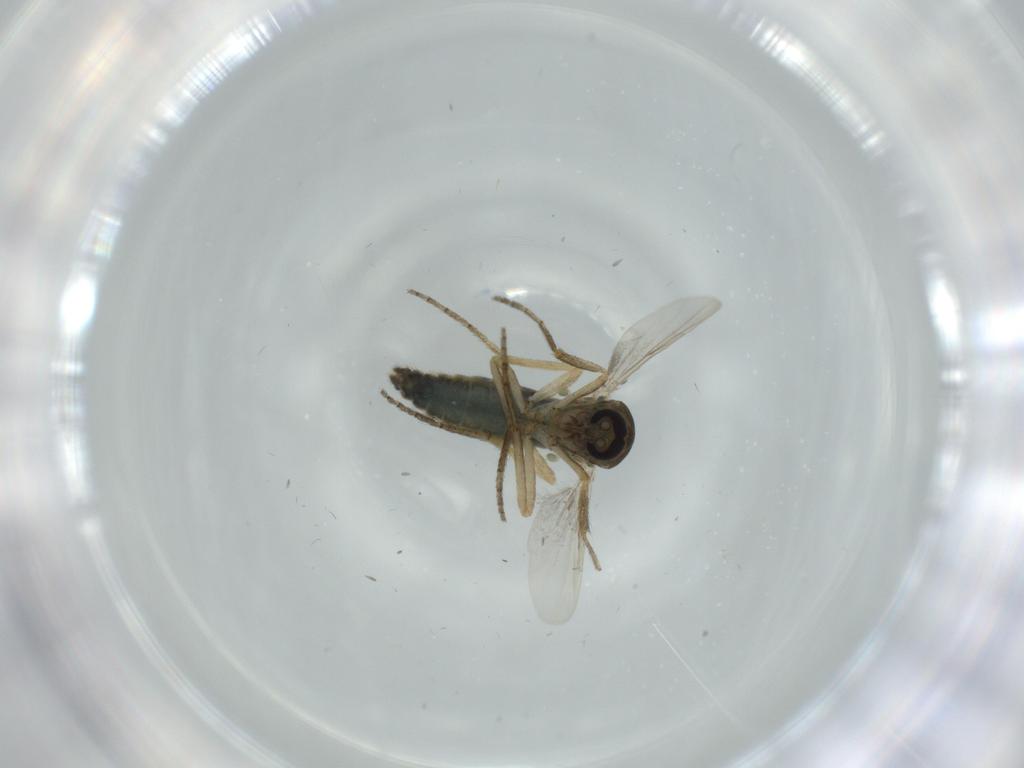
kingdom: Animalia
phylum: Arthropoda
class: Insecta
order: Diptera
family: Ceratopogonidae
